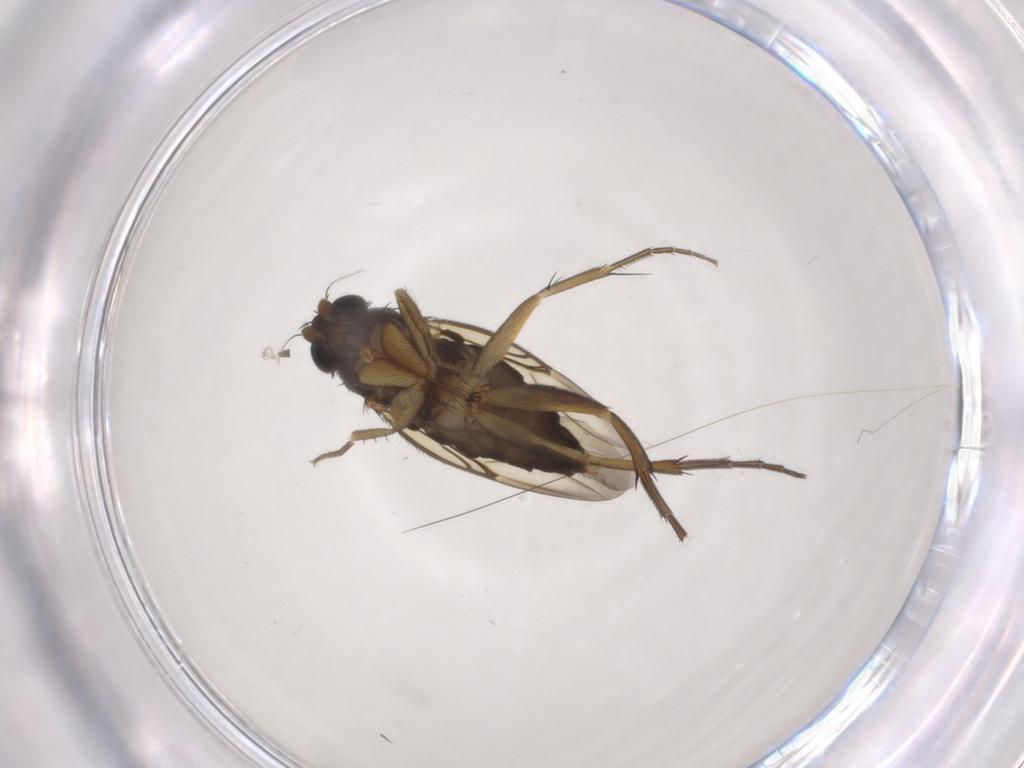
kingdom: Animalia
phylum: Arthropoda
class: Insecta
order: Diptera
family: Phoridae
